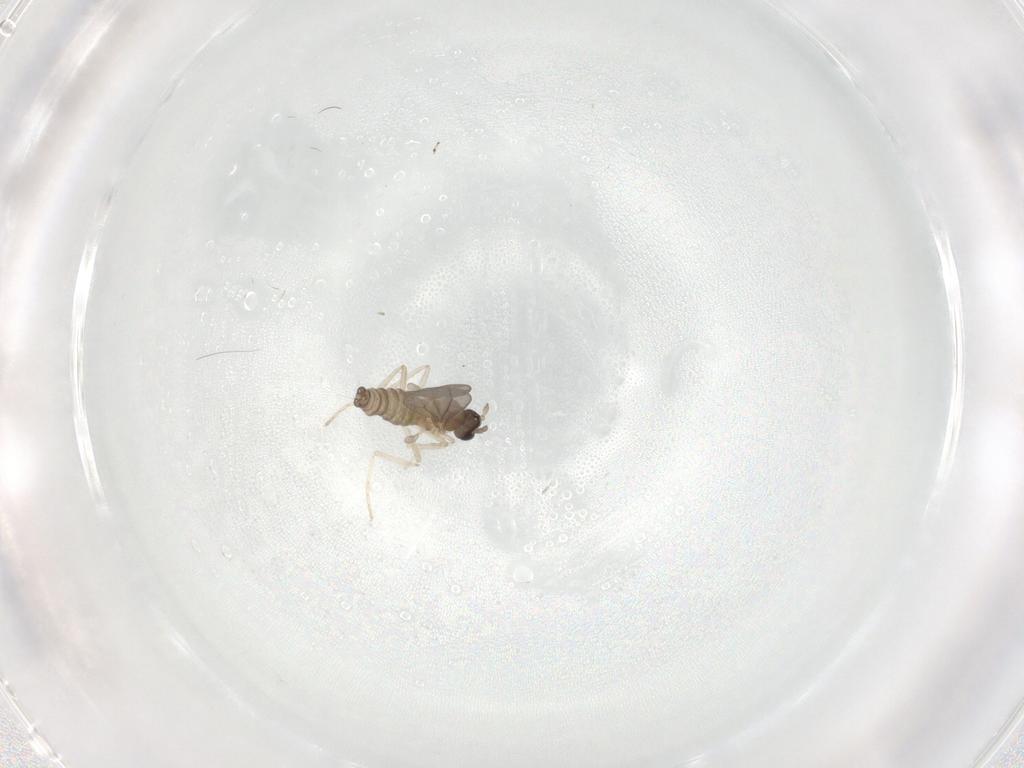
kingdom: Animalia
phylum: Arthropoda
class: Insecta
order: Diptera
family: Cecidomyiidae
